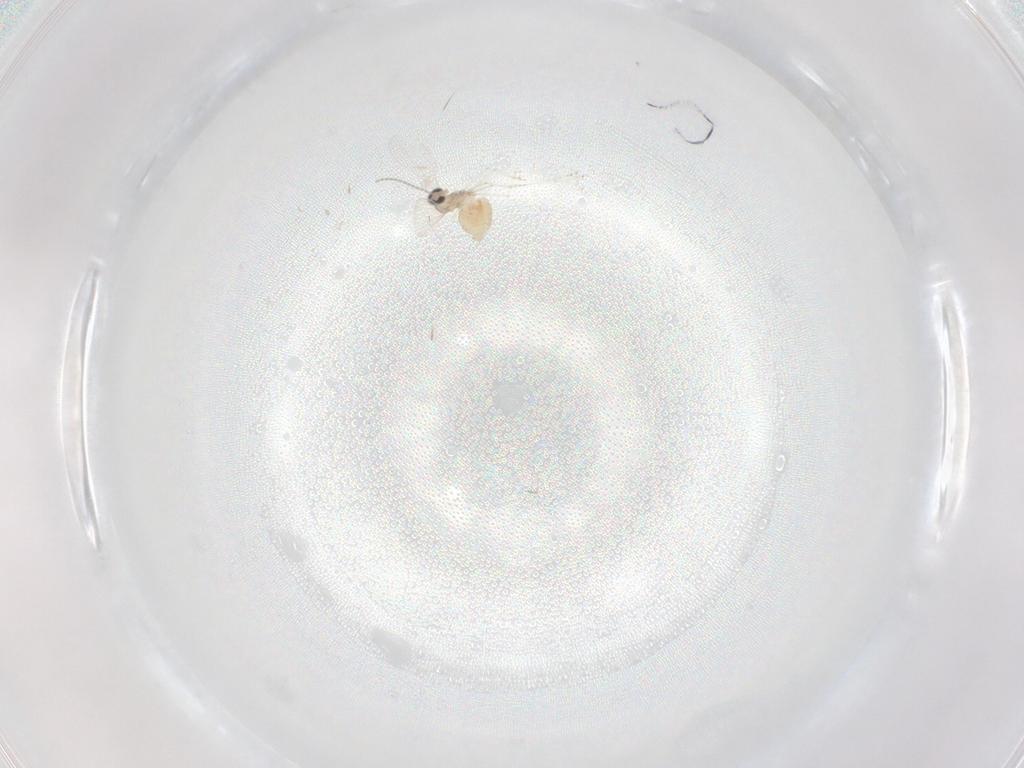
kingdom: Animalia
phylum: Arthropoda
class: Insecta
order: Diptera
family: Cecidomyiidae
